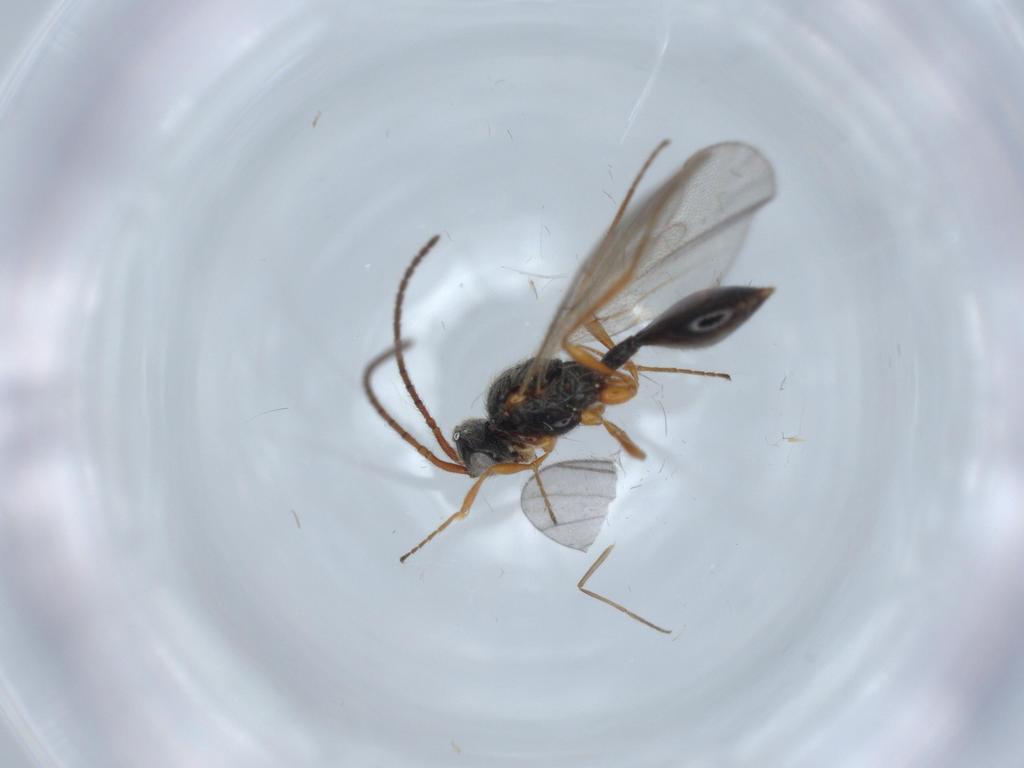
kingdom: Animalia
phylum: Arthropoda
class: Insecta
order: Hymenoptera
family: Diapriidae
